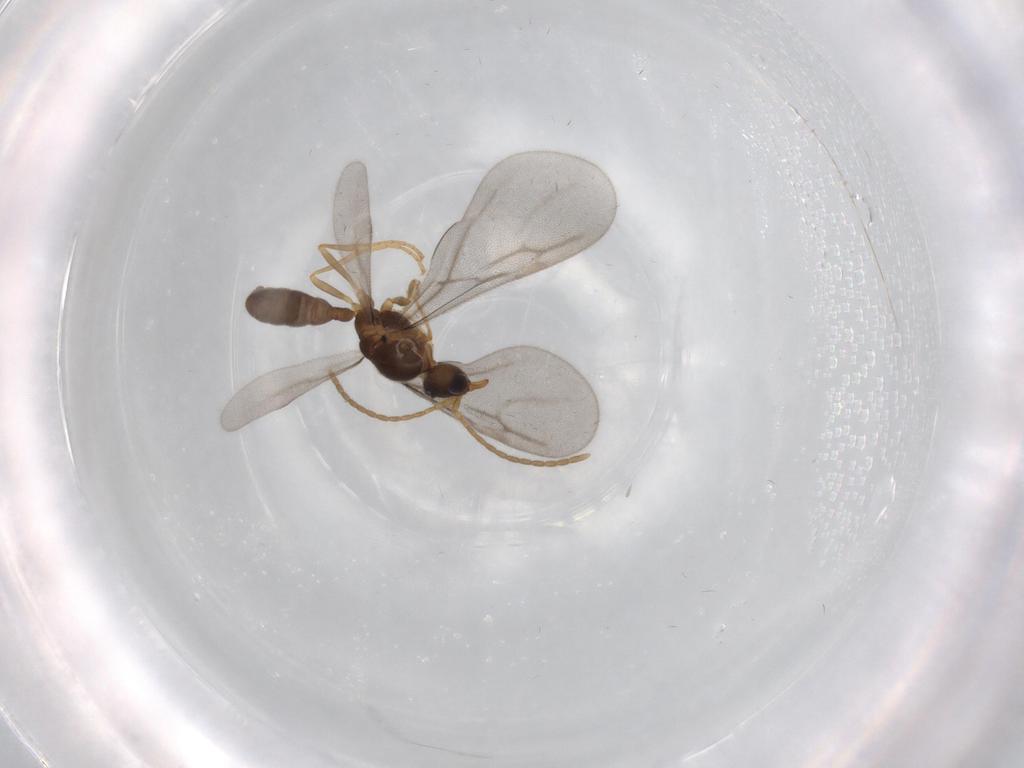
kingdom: Animalia
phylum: Arthropoda
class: Insecta
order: Hymenoptera
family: Formicidae
